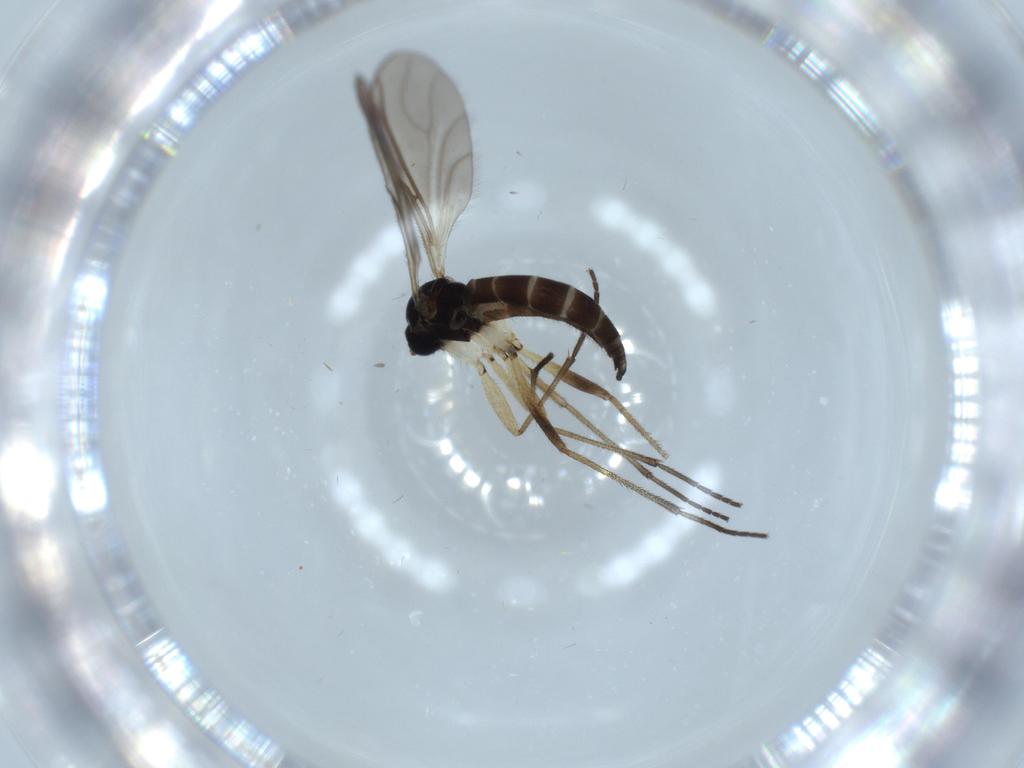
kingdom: Animalia
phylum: Arthropoda
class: Insecta
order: Diptera
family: Sciaridae
